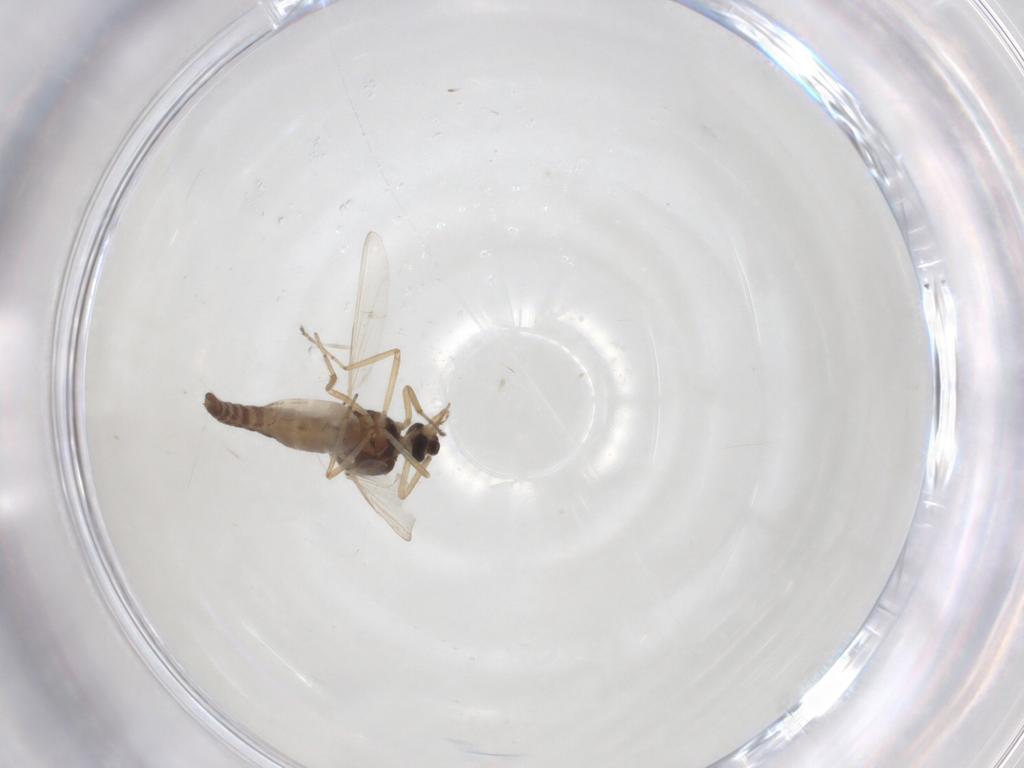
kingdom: Animalia
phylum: Arthropoda
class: Insecta
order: Diptera
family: Ceratopogonidae
